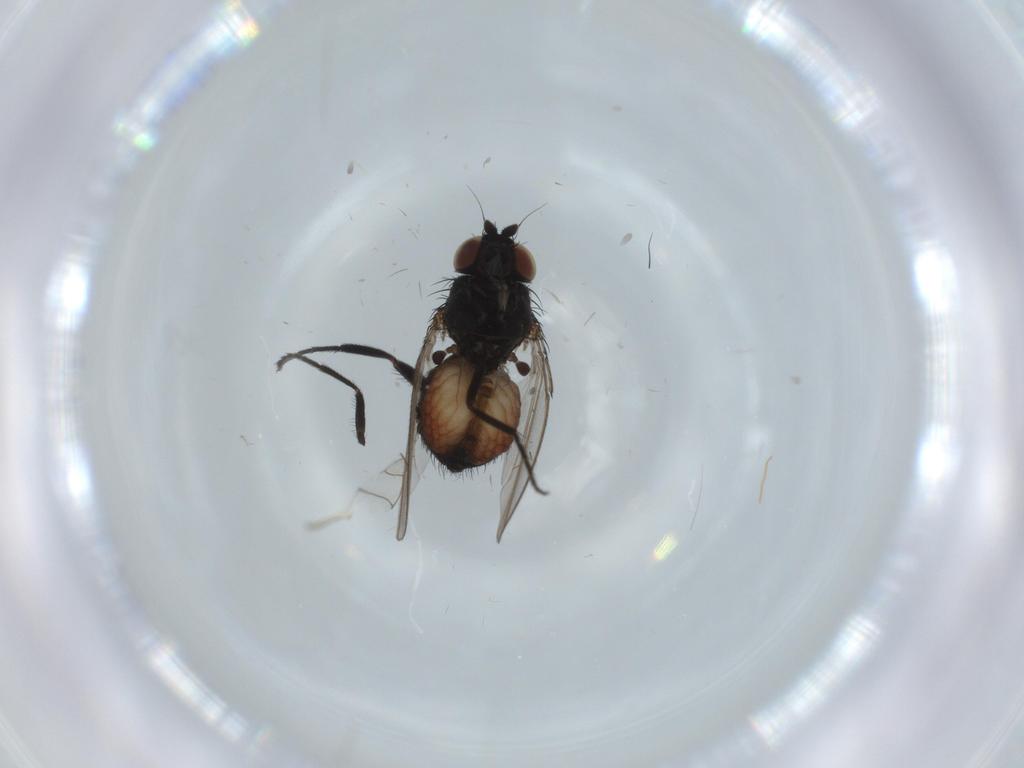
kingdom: Animalia
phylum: Arthropoda
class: Insecta
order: Diptera
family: Milichiidae
